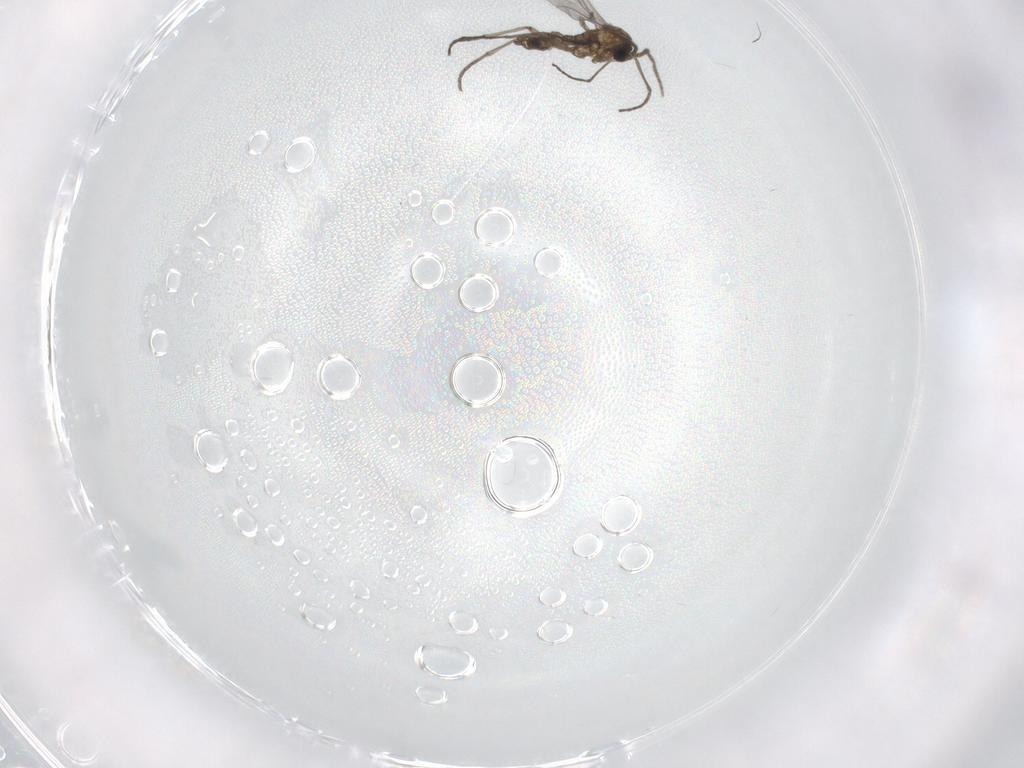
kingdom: Animalia
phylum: Arthropoda
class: Insecta
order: Diptera
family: Sciaridae
